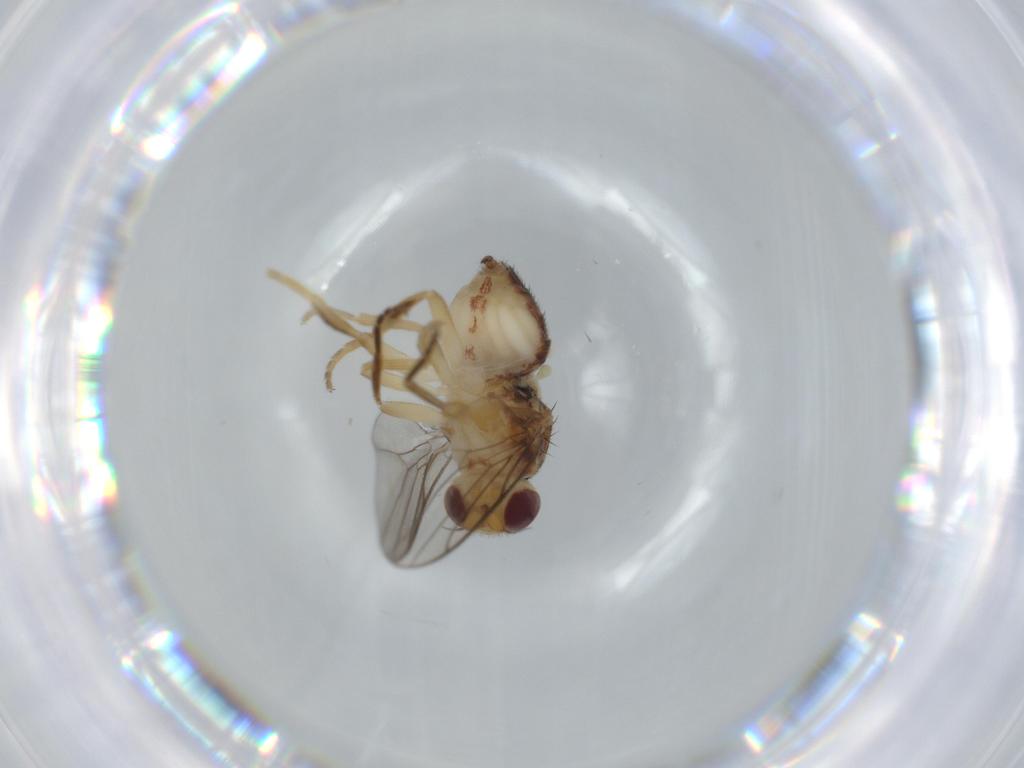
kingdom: Animalia
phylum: Arthropoda
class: Insecta
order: Diptera
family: Chloropidae
